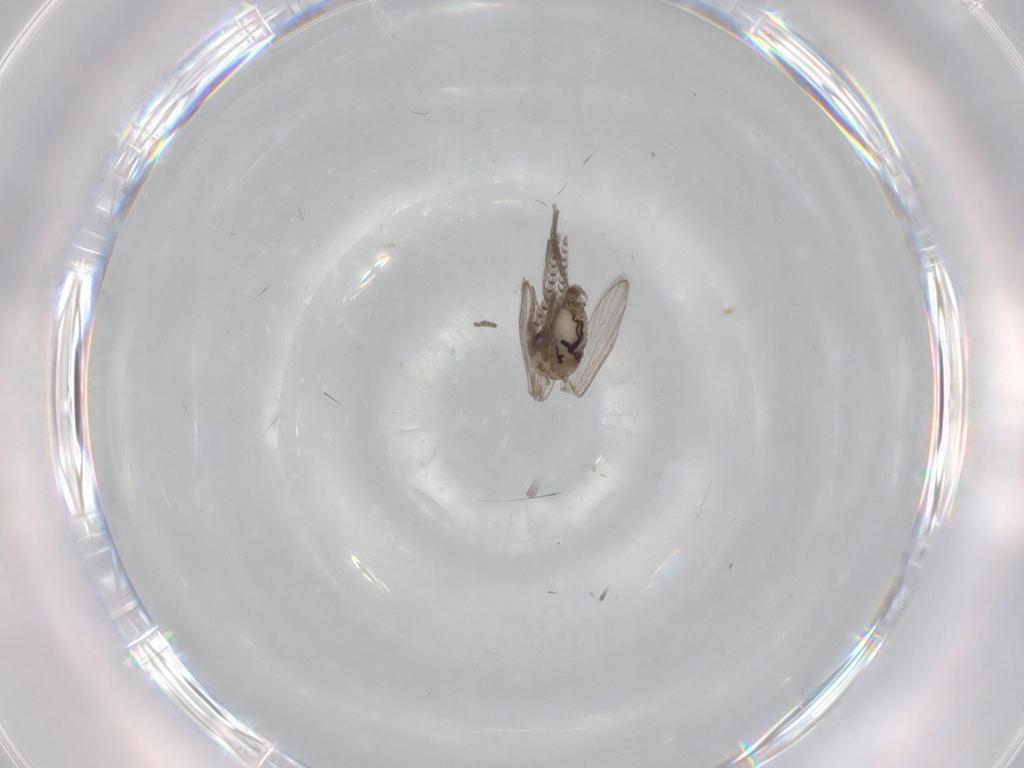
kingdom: Animalia
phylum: Arthropoda
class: Insecta
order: Diptera
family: Psychodidae
